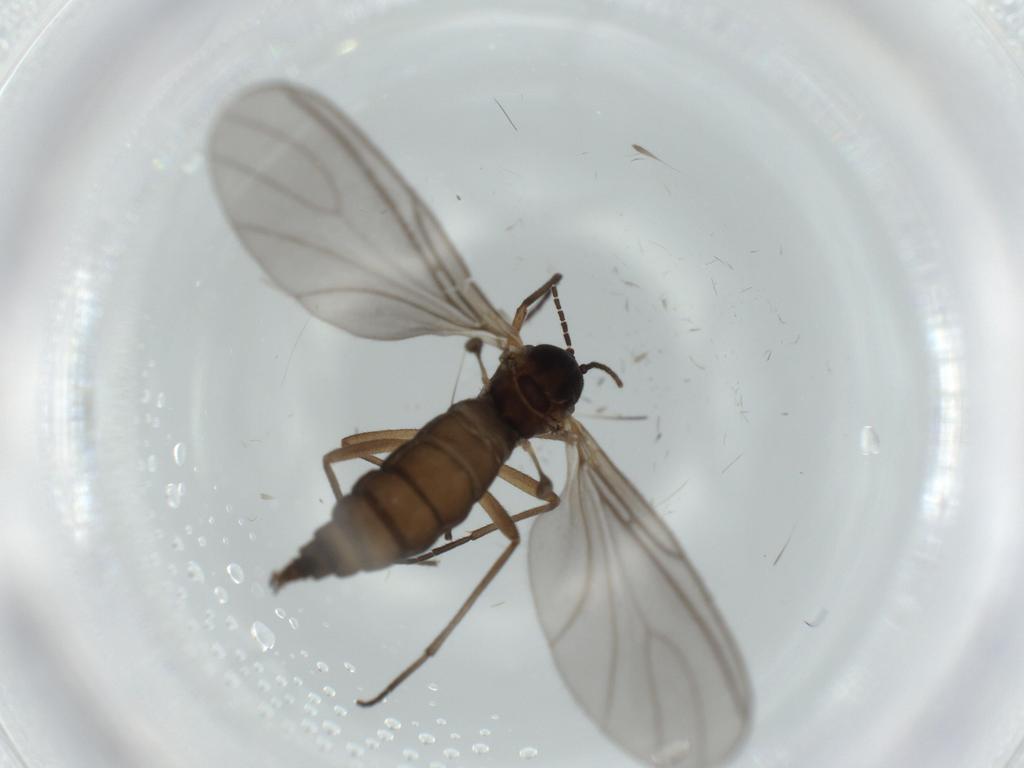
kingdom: Animalia
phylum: Arthropoda
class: Insecta
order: Diptera
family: Sciaridae
